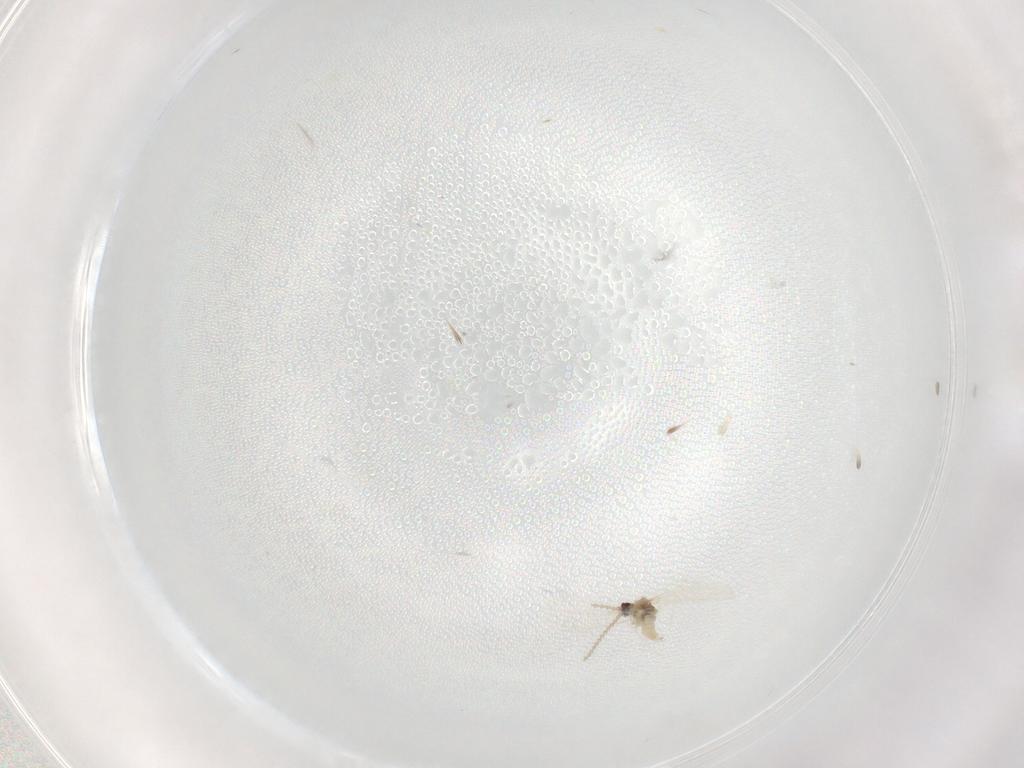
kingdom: Animalia
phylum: Arthropoda
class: Insecta
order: Diptera
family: Cecidomyiidae
